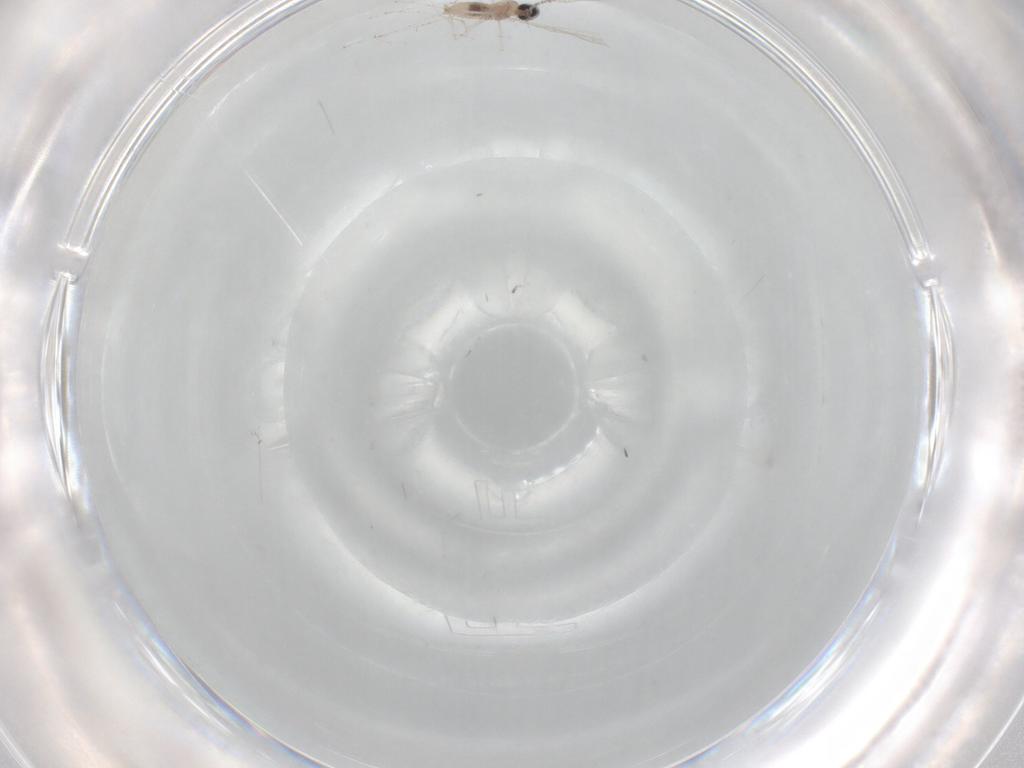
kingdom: Animalia
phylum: Arthropoda
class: Insecta
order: Diptera
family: Cecidomyiidae
